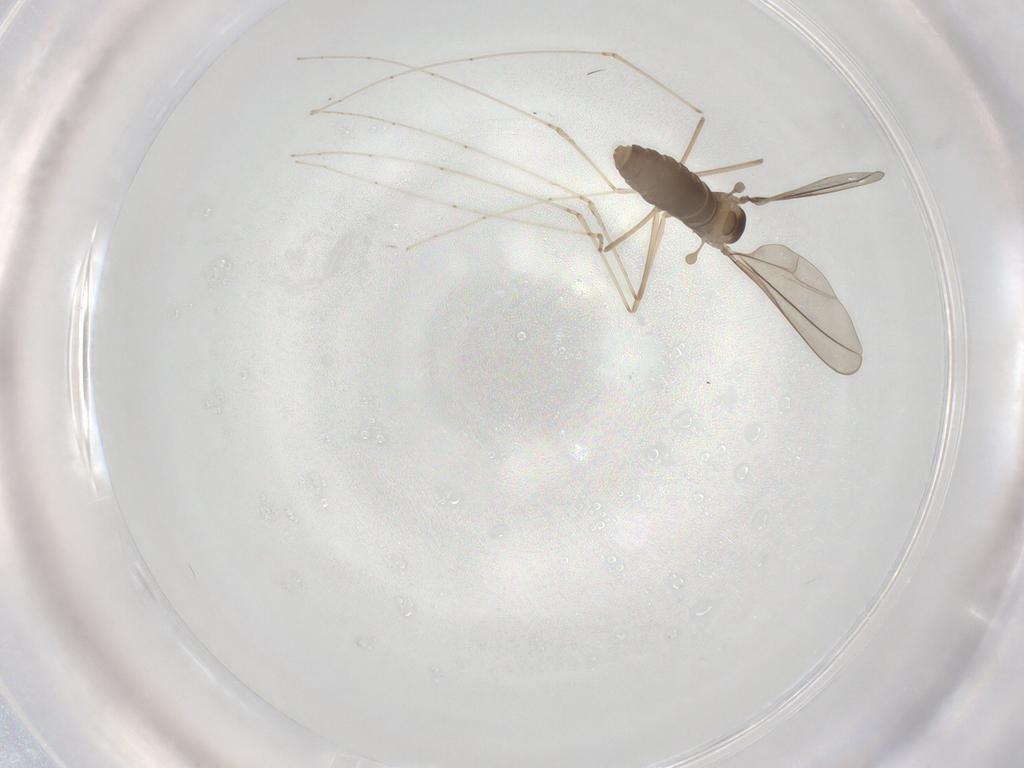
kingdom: Animalia
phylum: Arthropoda
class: Insecta
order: Diptera
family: Cecidomyiidae
